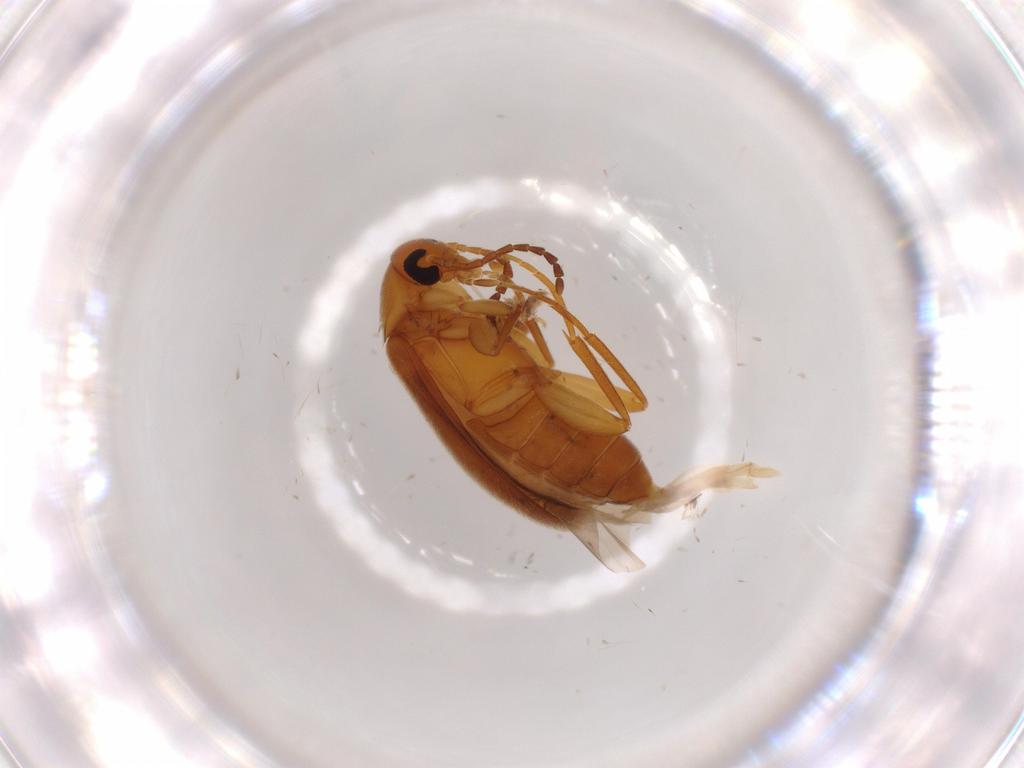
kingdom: Animalia
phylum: Arthropoda
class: Insecta
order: Coleoptera
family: Scraptiidae
